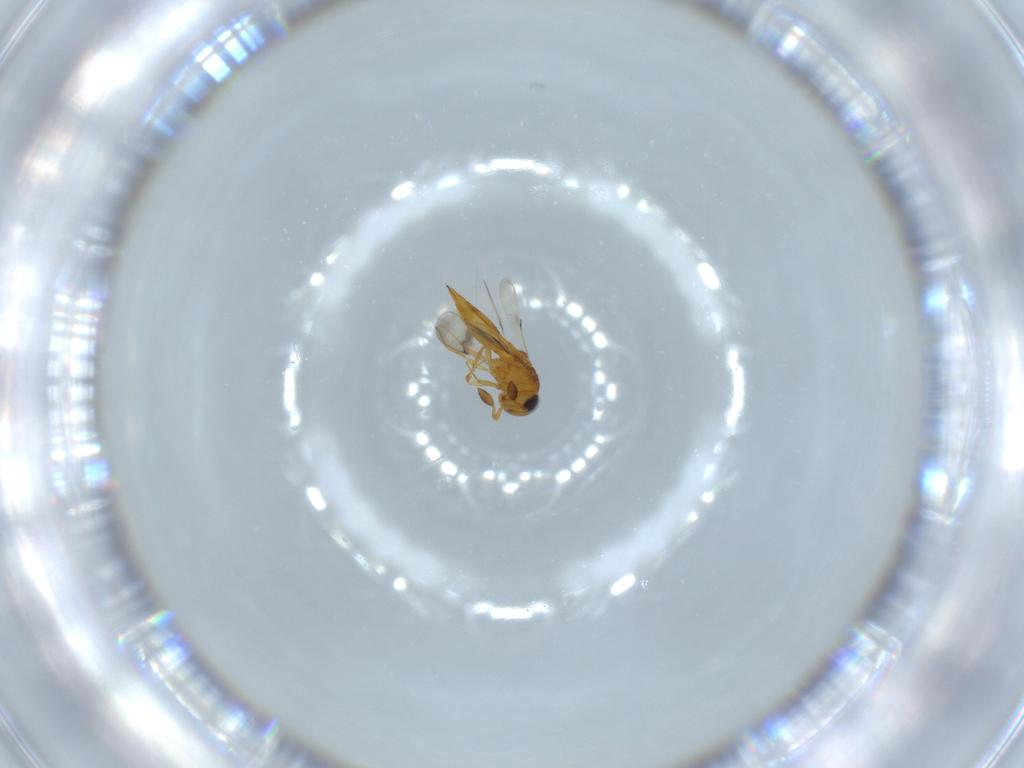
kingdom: Animalia
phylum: Arthropoda
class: Insecta
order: Hymenoptera
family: Scelionidae
